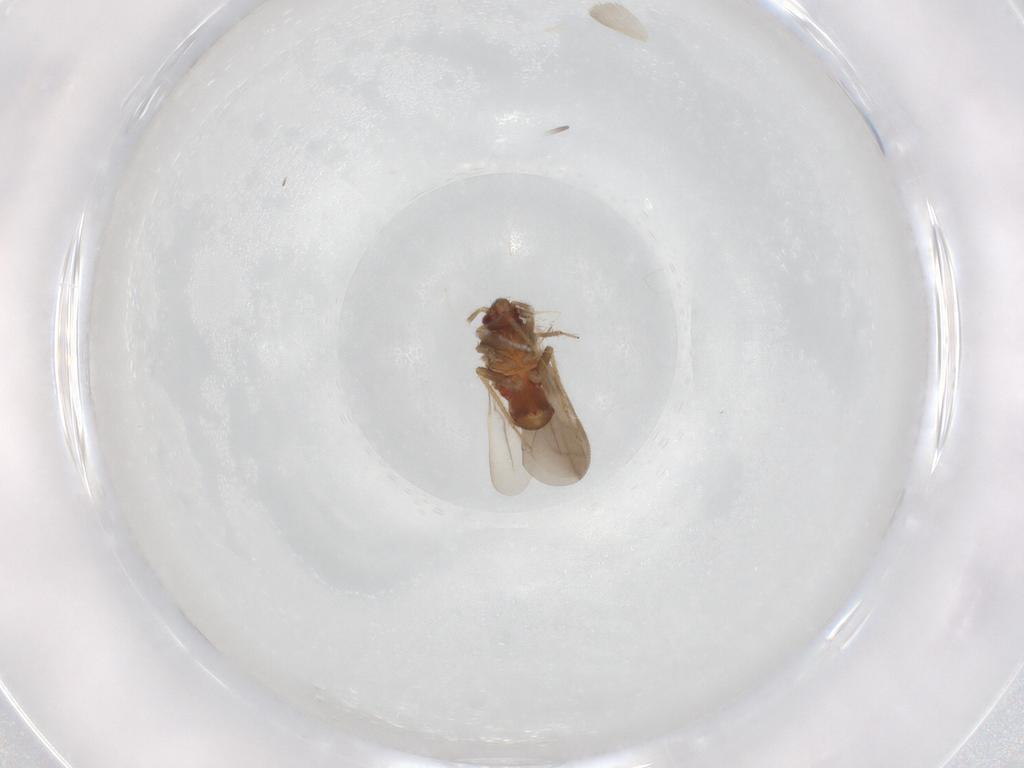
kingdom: Animalia
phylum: Arthropoda
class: Insecta
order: Hemiptera
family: Ceratocombidae
